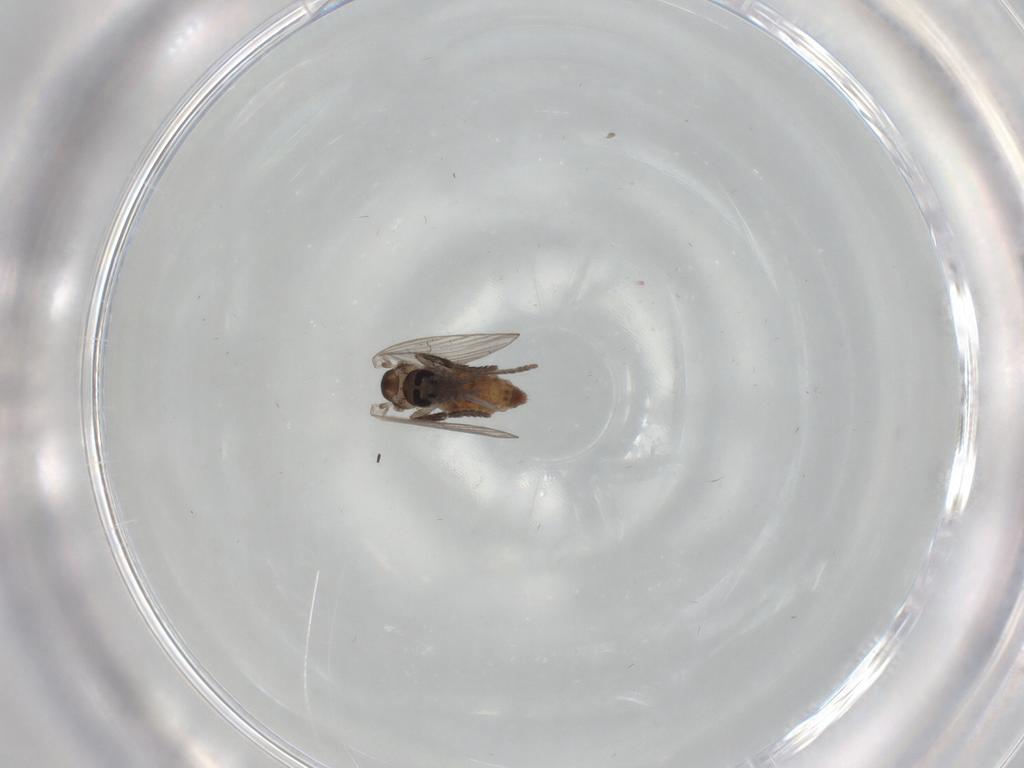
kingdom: Animalia
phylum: Arthropoda
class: Insecta
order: Diptera
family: Psychodidae
